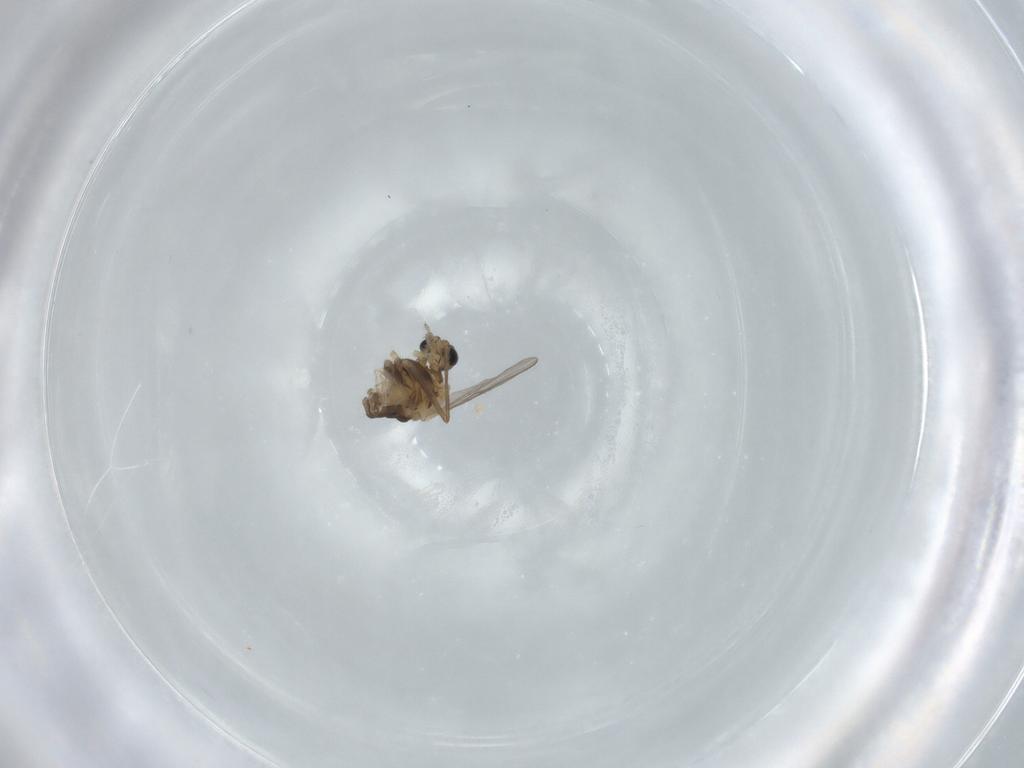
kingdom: Animalia
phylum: Arthropoda
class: Insecta
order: Diptera
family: Chironomidae
